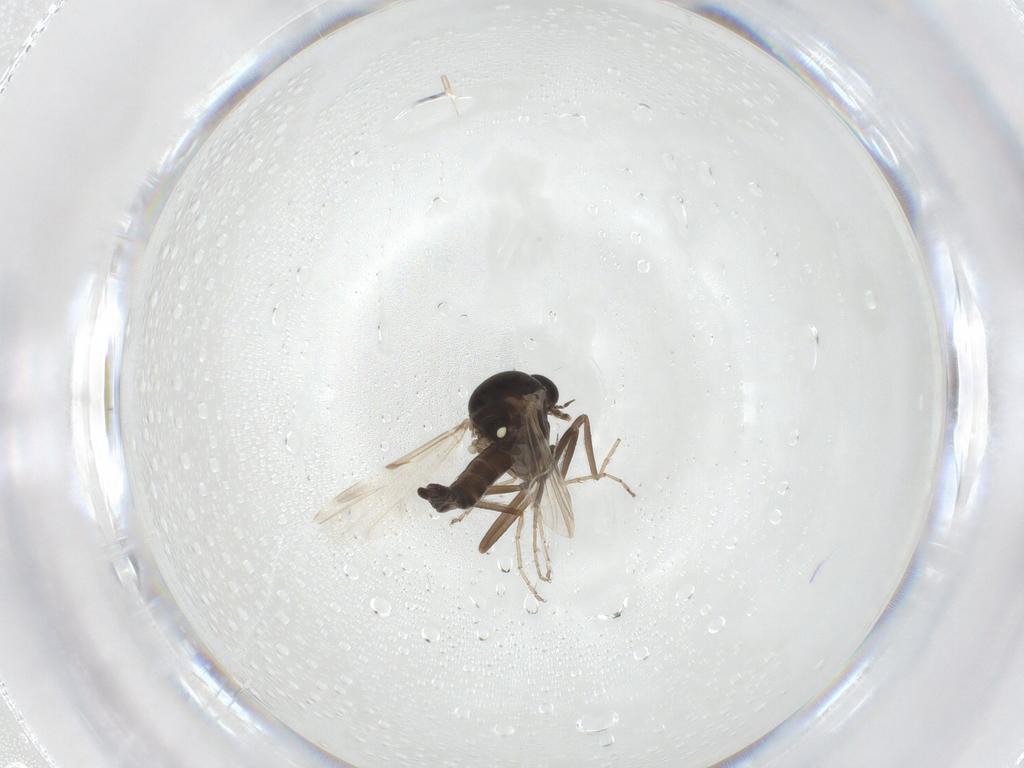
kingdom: Animalia
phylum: Arthropoda
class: Insecta
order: Diptera
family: Ceratopogonidae
